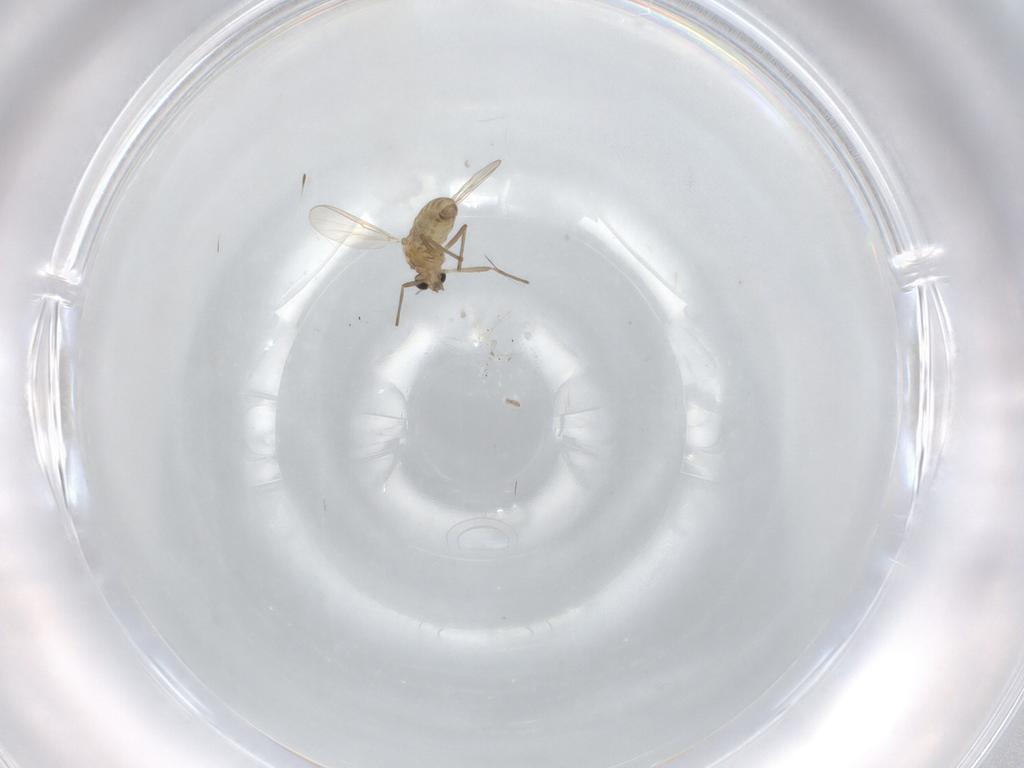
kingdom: Animalia
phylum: Arthropoda
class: Insecta
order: Diptera
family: Chironomidae
